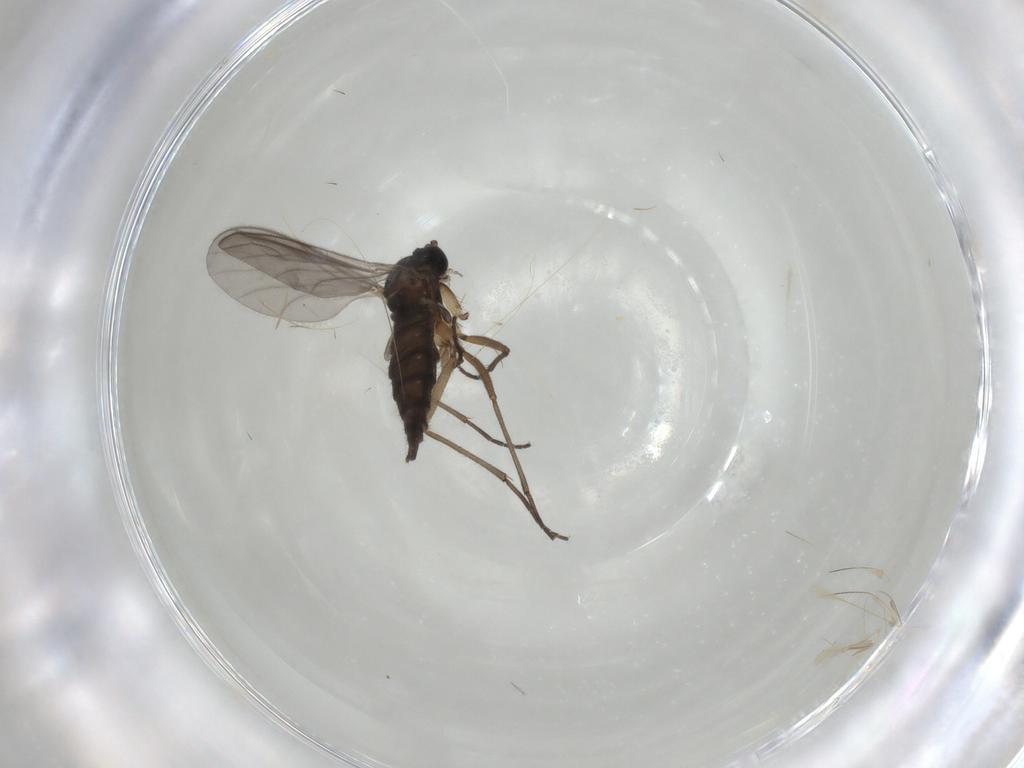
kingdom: Animalia
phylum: Arthropoda
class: Insecta
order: Diptera
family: Sciaridae
